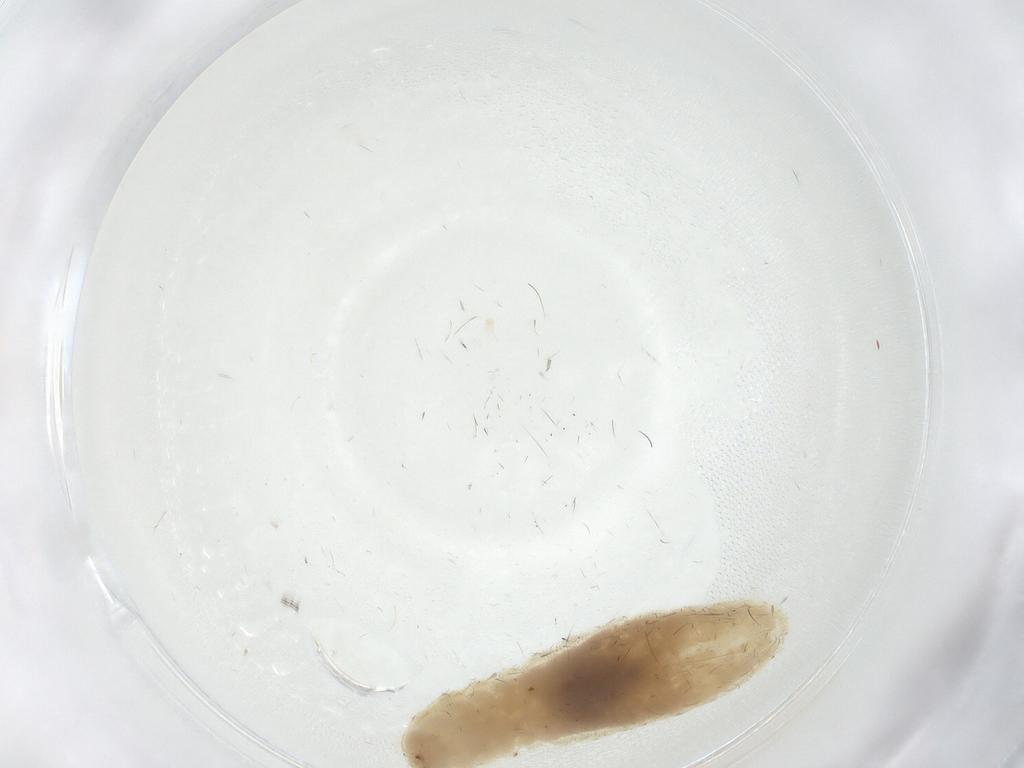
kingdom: Animalia
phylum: Arthropoda
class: Insecta
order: Hymenoptera
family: Formicidae
